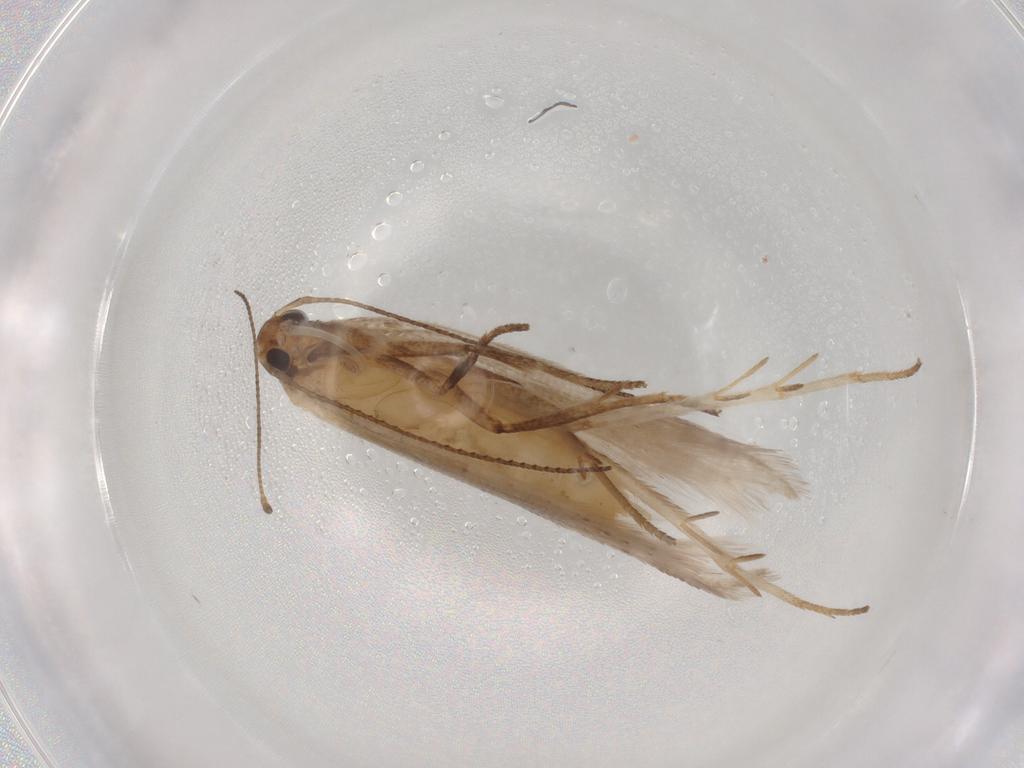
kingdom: Animalia
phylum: Arthropoda
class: Insecta
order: Lepidoptera
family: Gelechiidae
